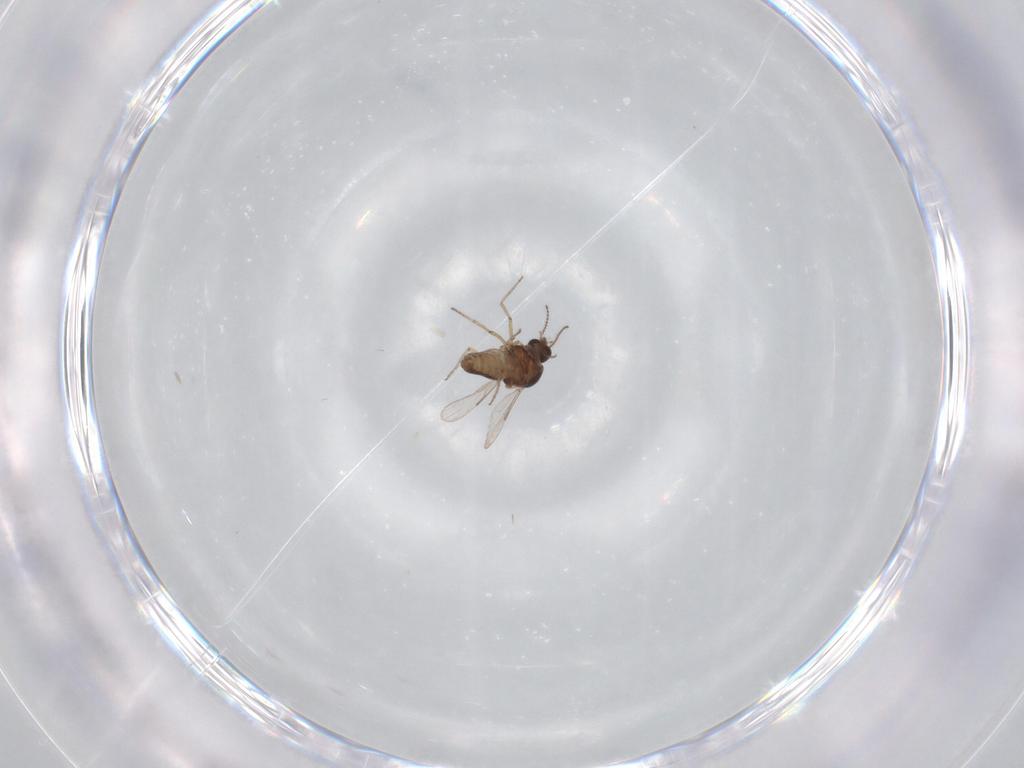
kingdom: Animalia
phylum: Arthropoda
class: Insecta
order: Diptera
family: Ceratopogonidae
